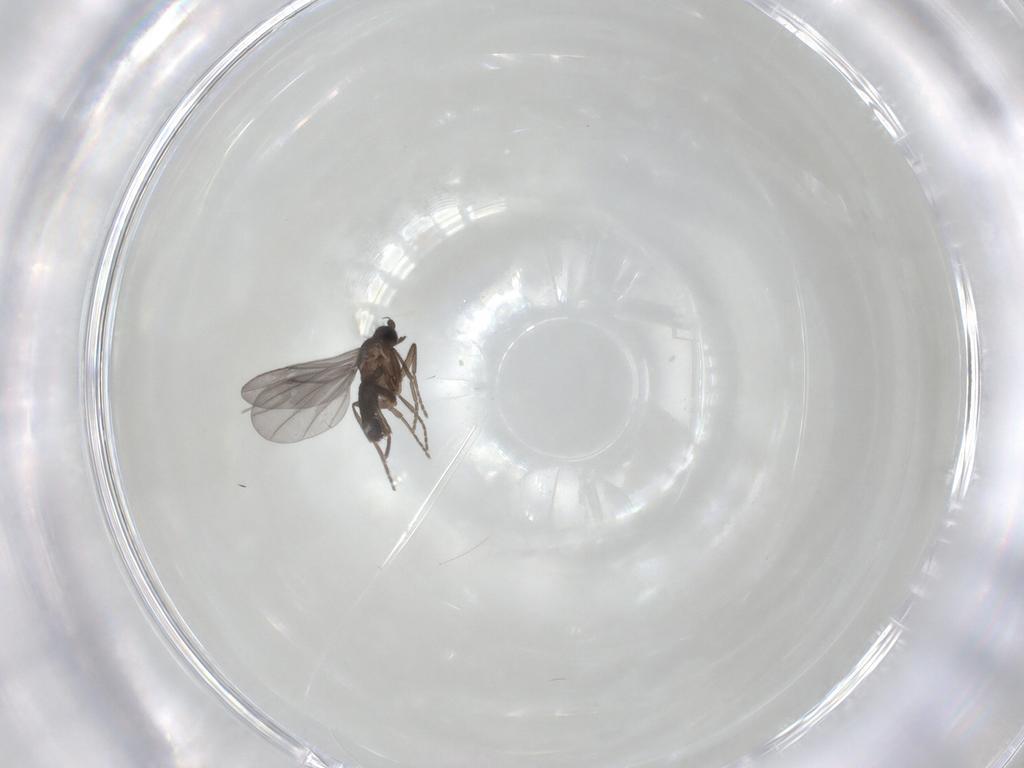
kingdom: Animalia
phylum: Arthropoda
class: Insecta
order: Diptera
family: Phoridae
